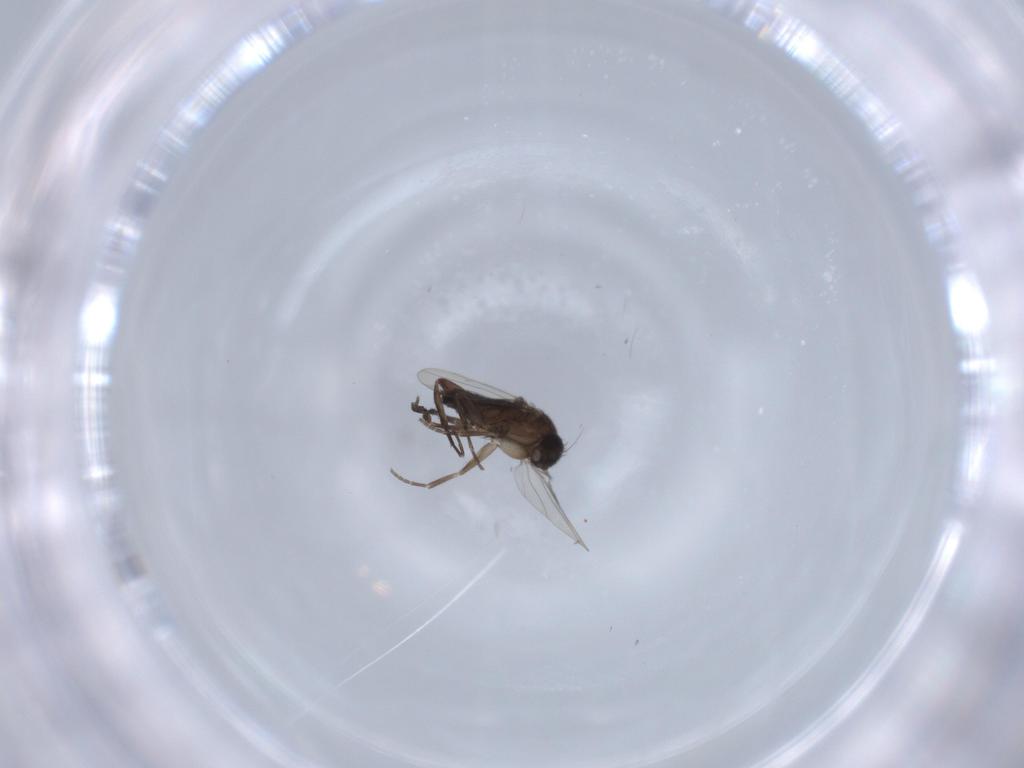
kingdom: Animalia
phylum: Arthropoda
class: Insecta
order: Diptera
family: Phoridae
